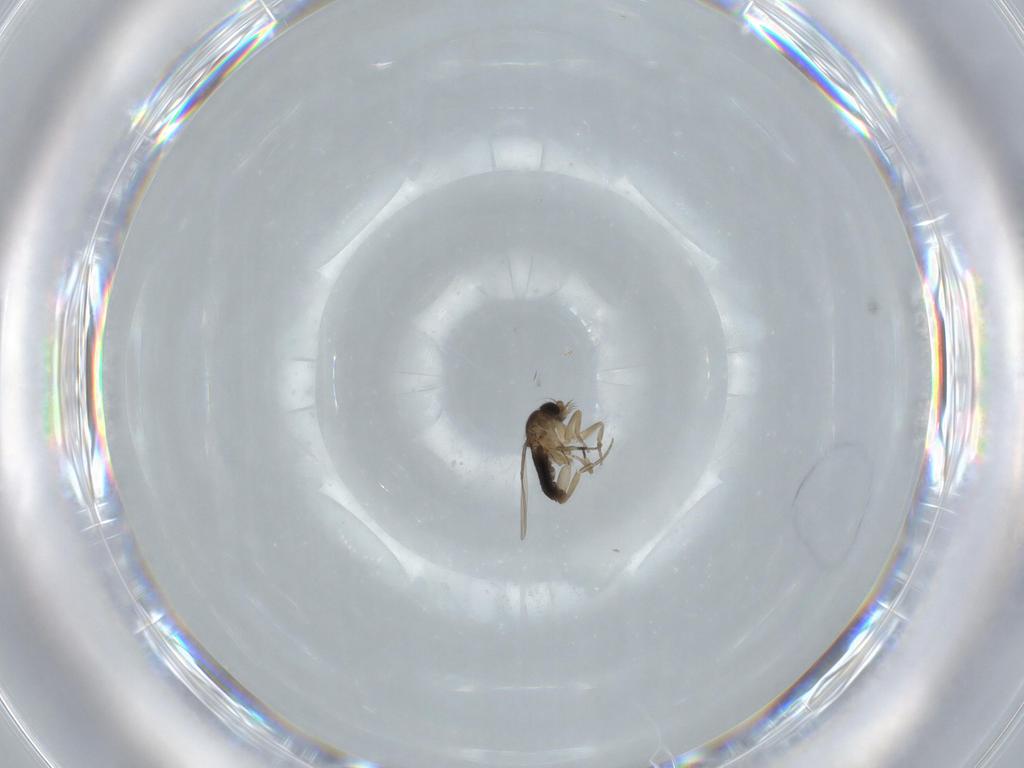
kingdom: Animalia
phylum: Arthropoda
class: Insecta
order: Diptera
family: Phoridae
